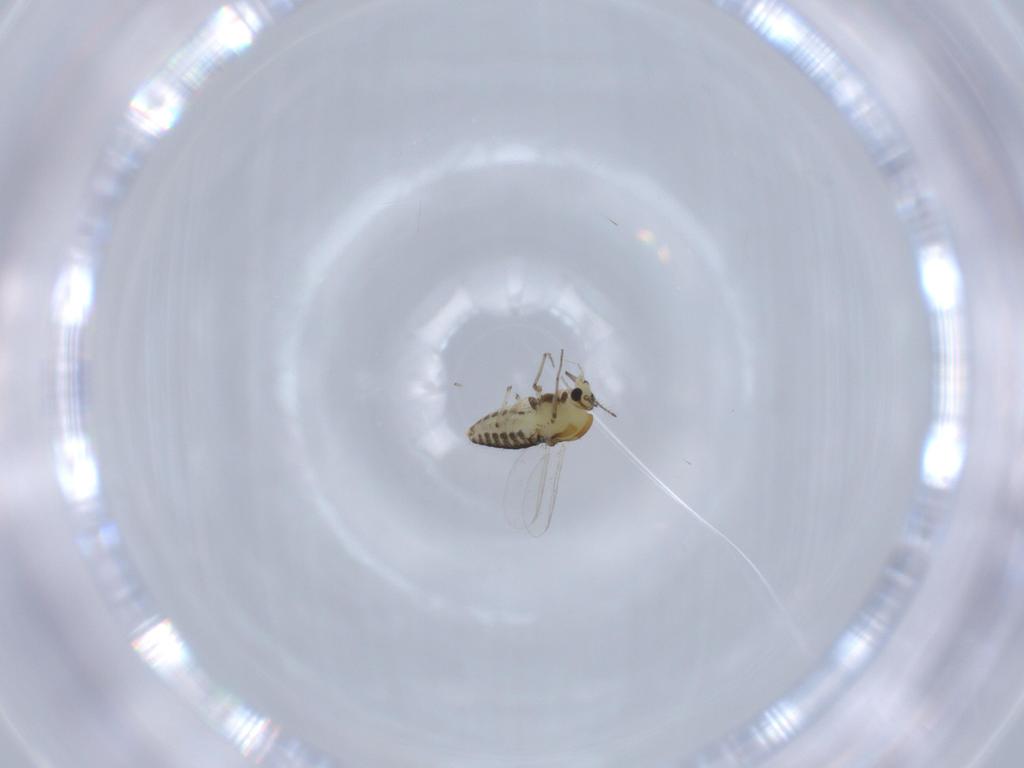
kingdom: Animalia
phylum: Arthropoda
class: Insecta
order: Diptera
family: Chironomidae
